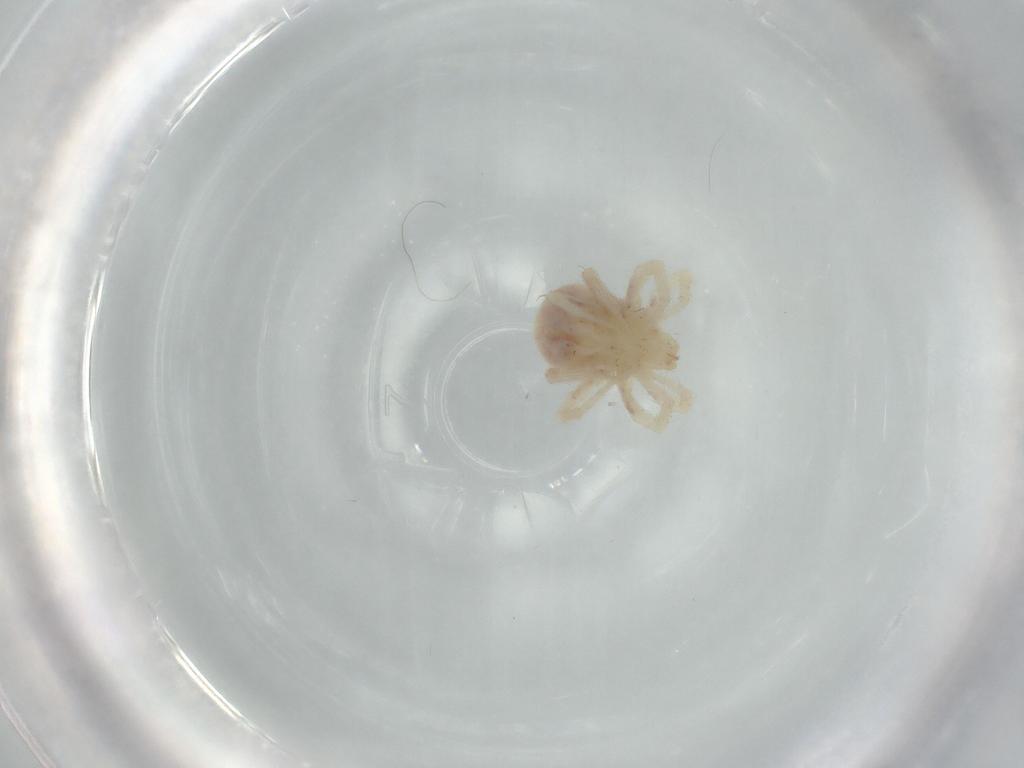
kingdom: Animalia
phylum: Arthropoda
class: Arachnida
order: Trombidiformes
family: Anystidae
